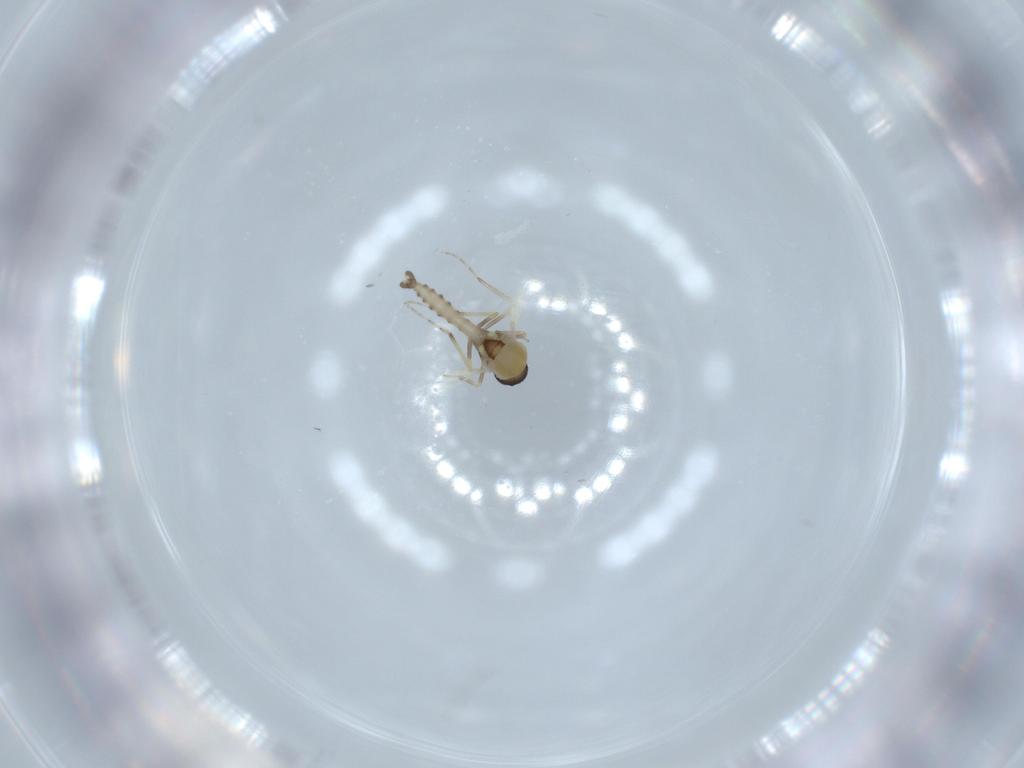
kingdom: Animalia
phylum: Arthropoda
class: Insecta
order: Diptera
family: Ceratopogonidae
